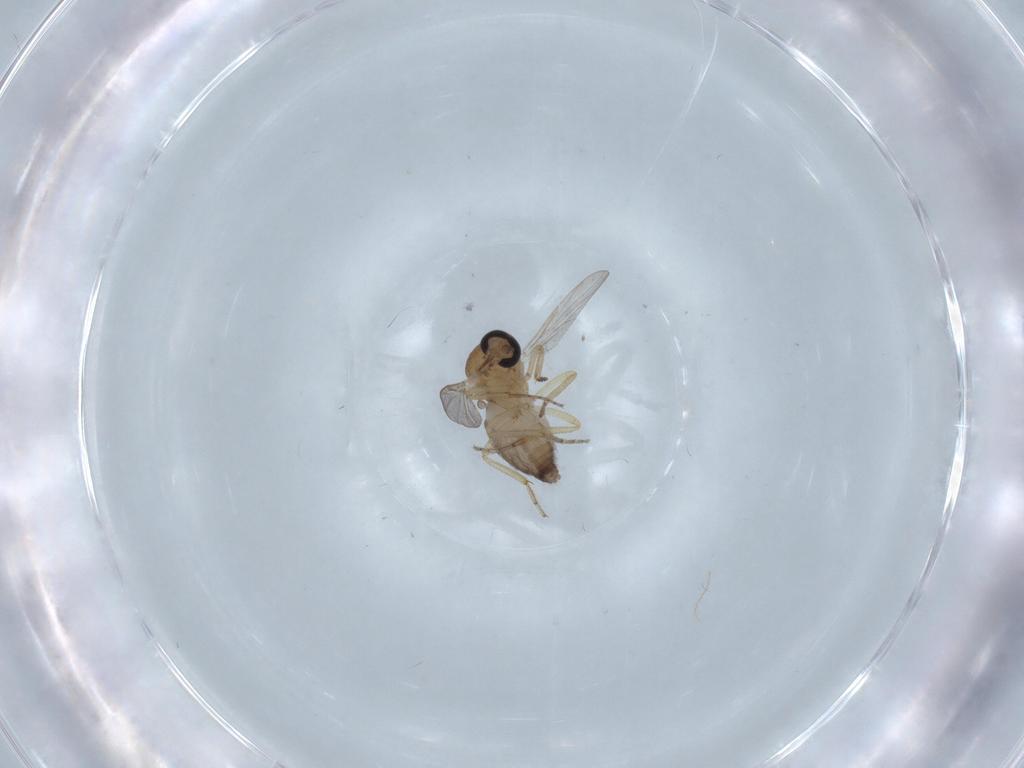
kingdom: Animalia
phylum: Arthropoda
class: Insecta
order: Diptera
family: Ceratopogonidae
